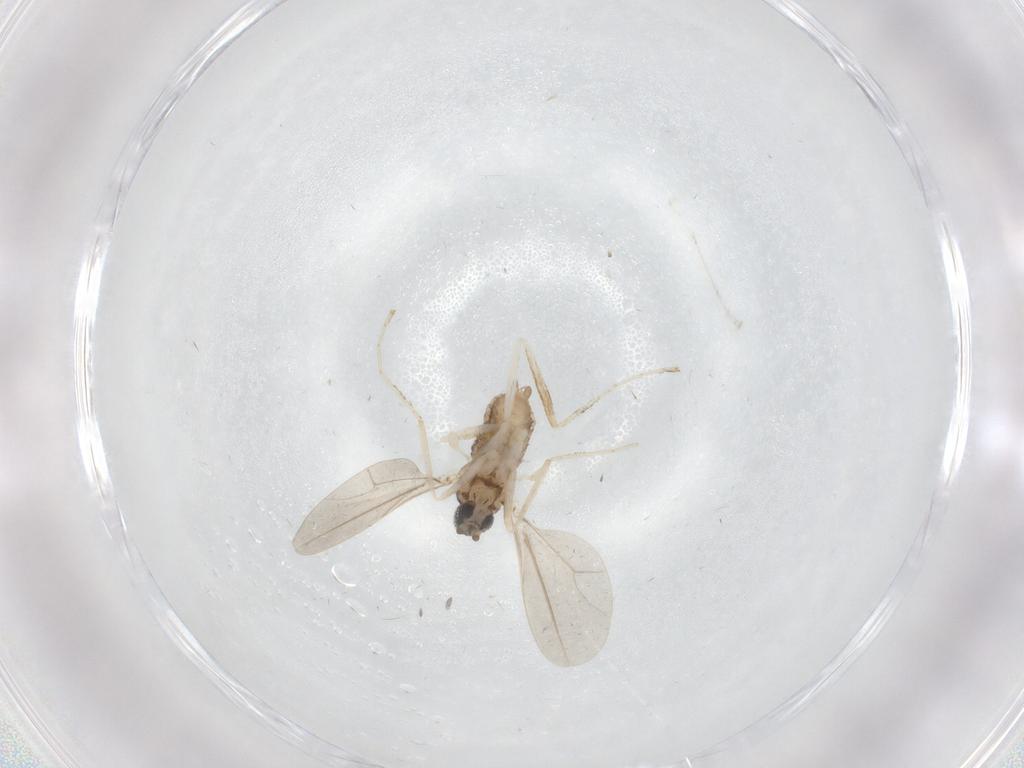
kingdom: Animalia
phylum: Arthropoda
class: Insecta
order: Diptera
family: Cecidomyiidae
